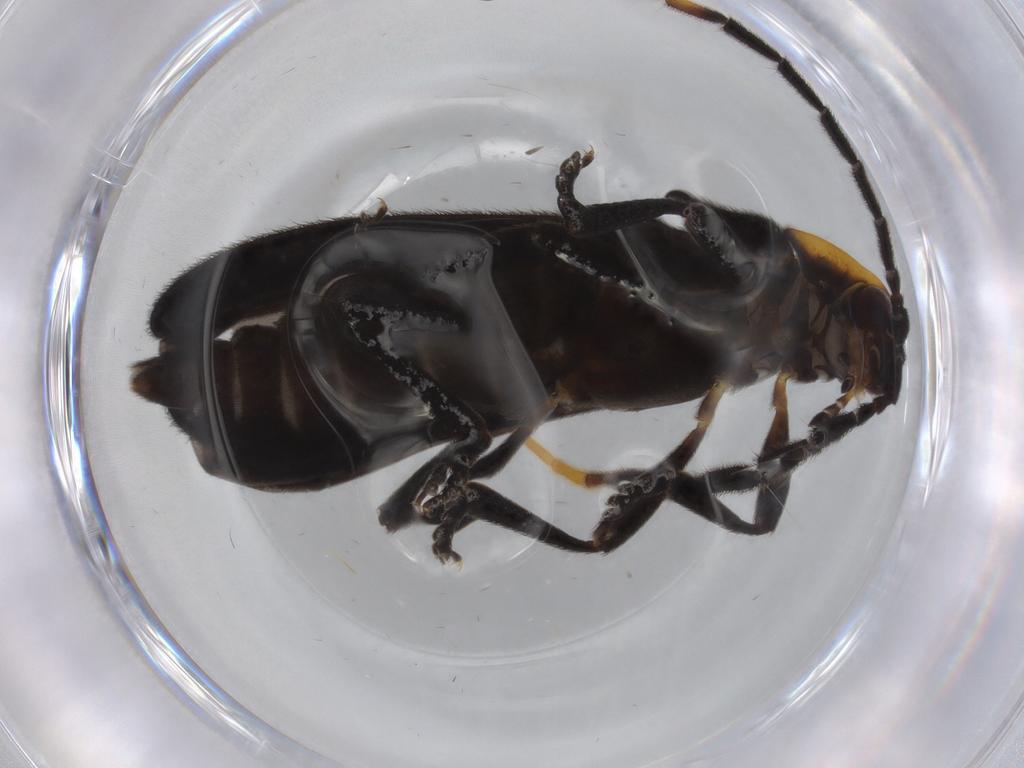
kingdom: Animalia
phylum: Arthropoda
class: Insecta
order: Coleoptera
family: Lycidae
